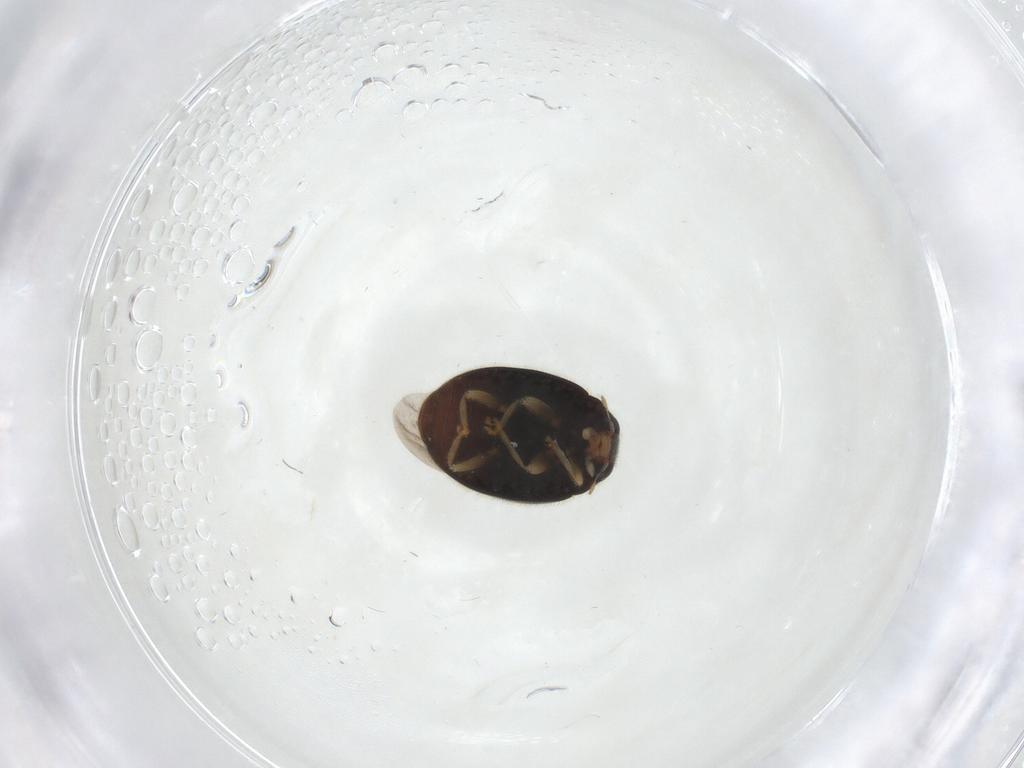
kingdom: Animalia
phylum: Arthropoda
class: Insecta
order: Coleoptera
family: Coccinellidae
